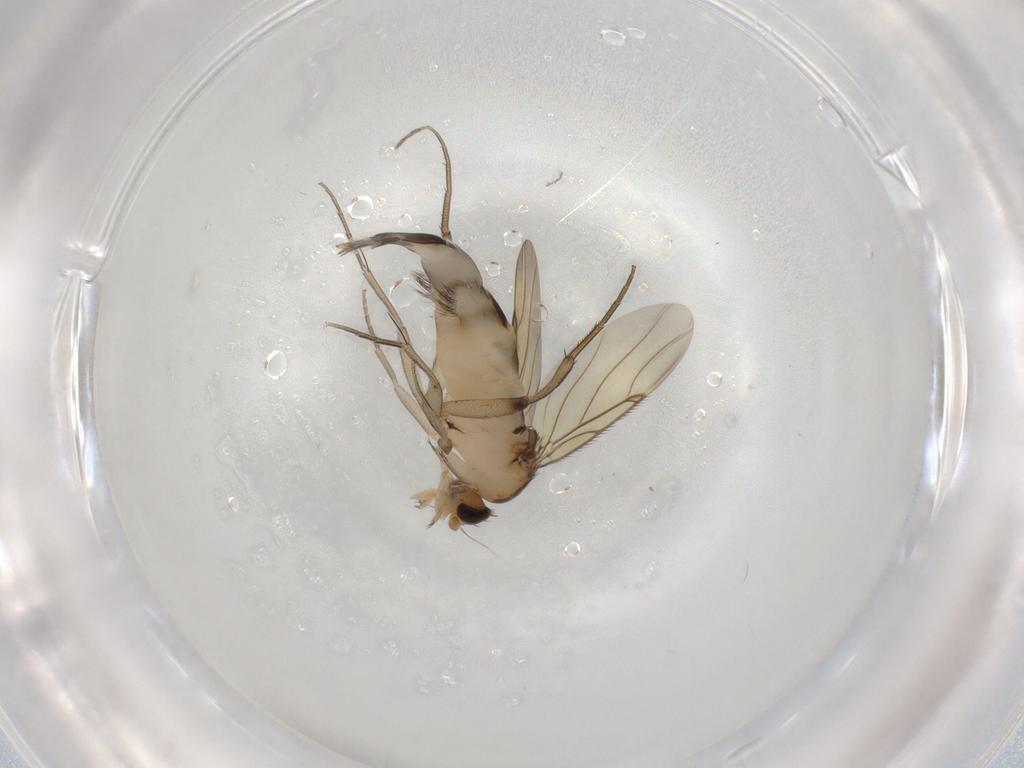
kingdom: Animalia
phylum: Arthropoda
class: Insecta
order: Diptera
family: Phoridae
